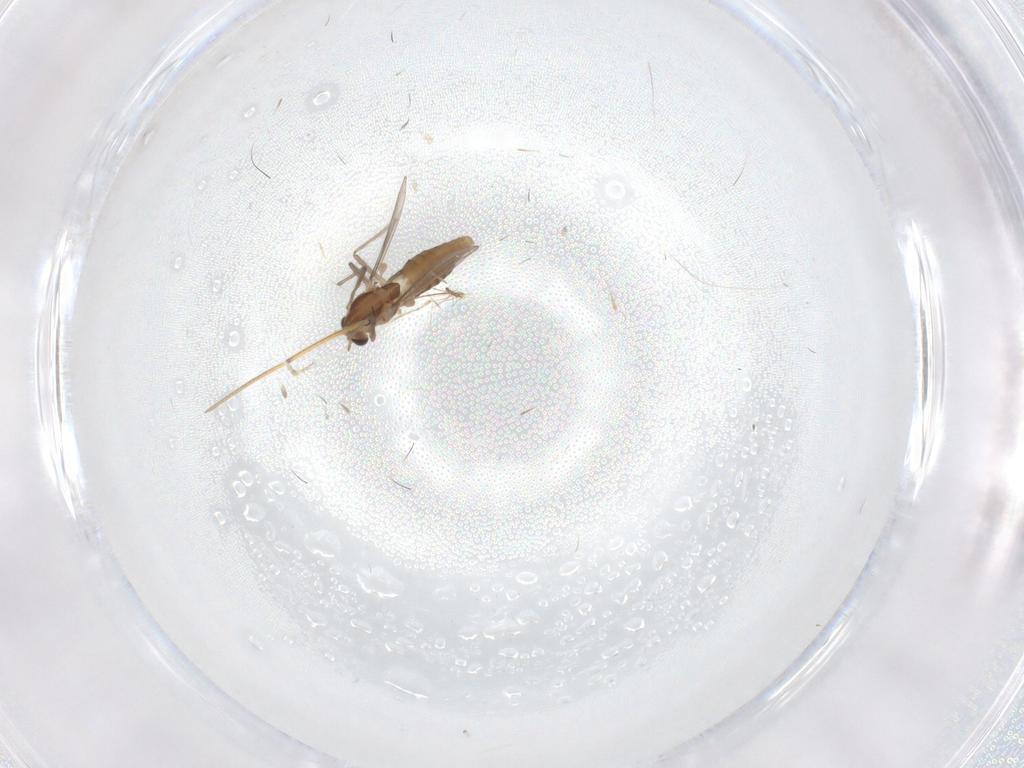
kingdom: Animalia
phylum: Arthropoda
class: Insecta
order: Diptera
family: Chironomidae
